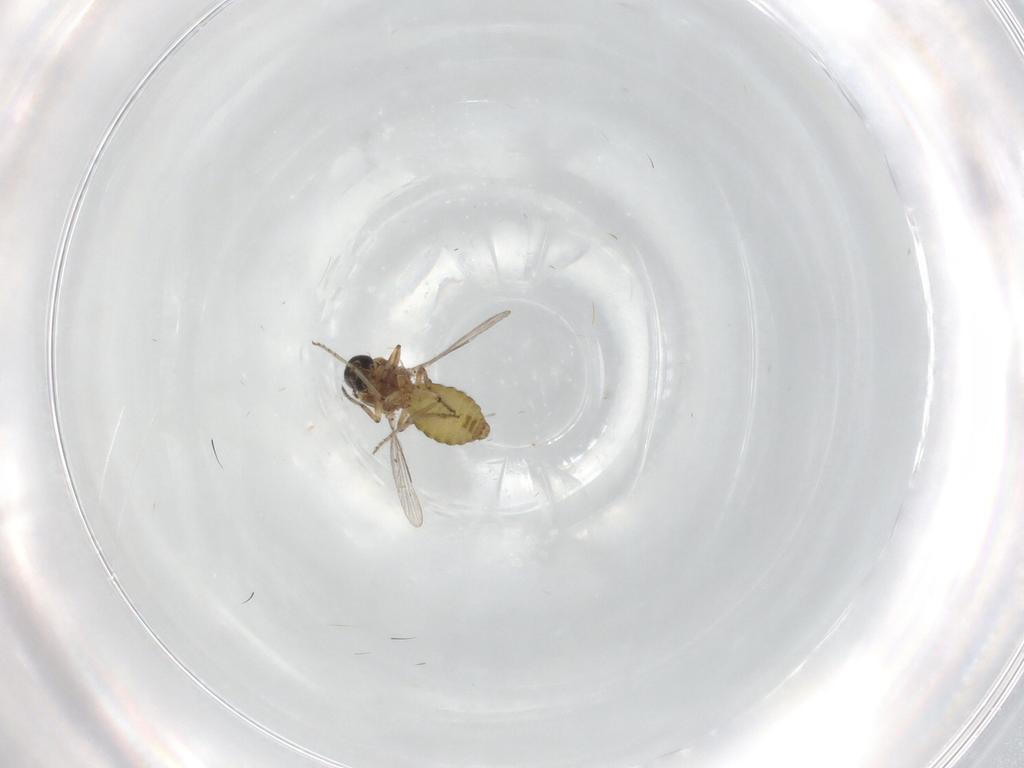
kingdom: Animalia
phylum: Arthropoda
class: Insecta
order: Diptera
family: Ceratopogonidae
